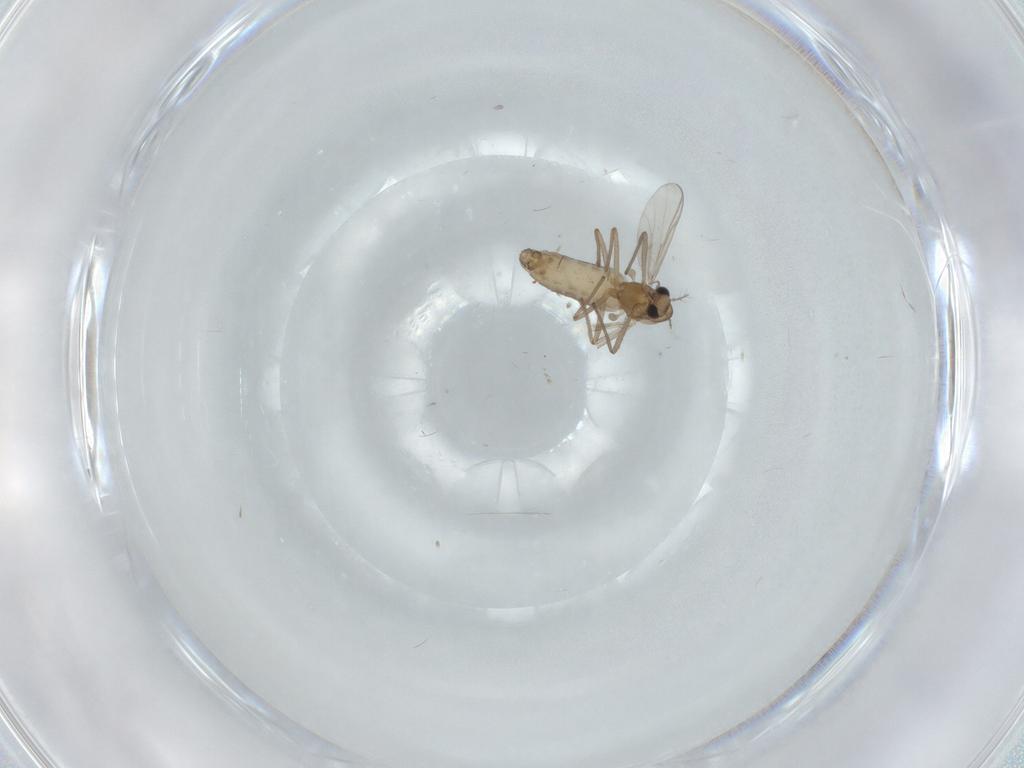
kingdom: Animalia
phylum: Arthropoda
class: Insecta
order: Diptera
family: Chironomidae
